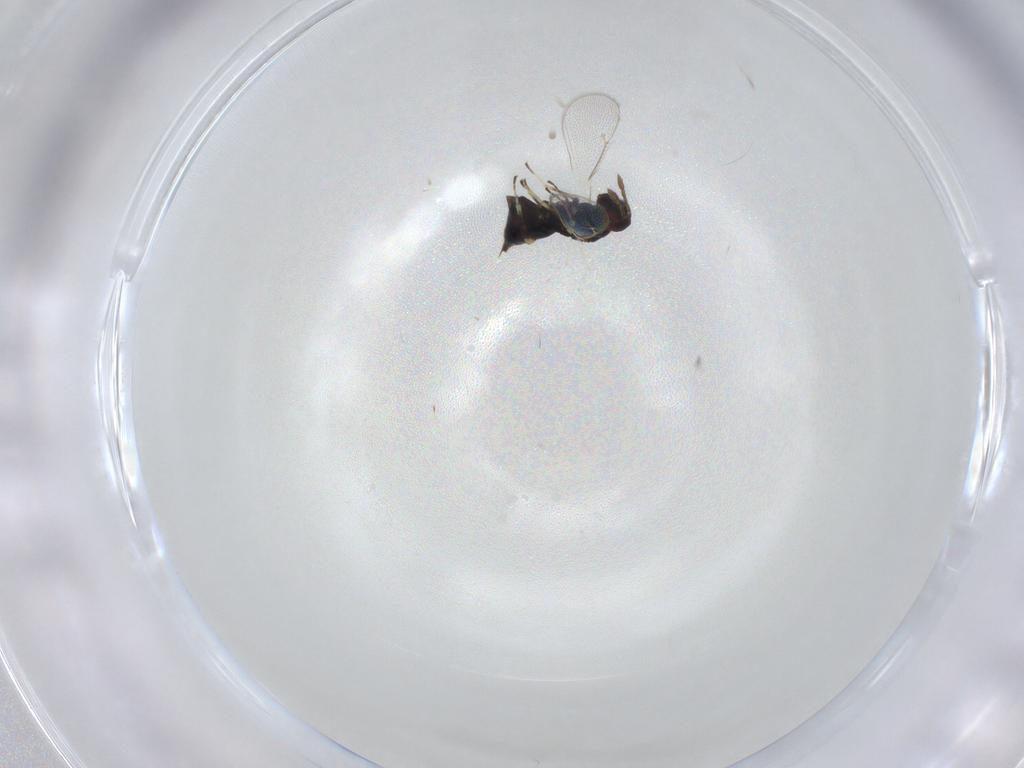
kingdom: Animalia
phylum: Arthropoda
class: Insecta
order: Hymenoptera
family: Eulophidae
